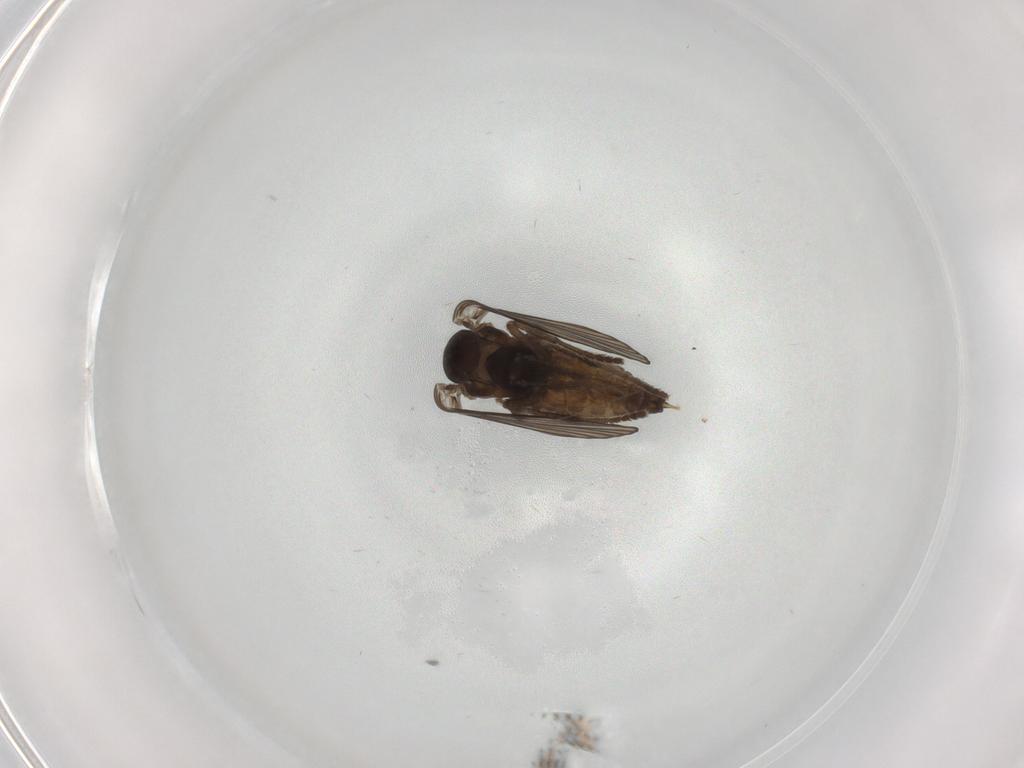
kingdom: Animalia
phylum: Arthropoda
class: Insecta
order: Diptera
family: Psychodidae
